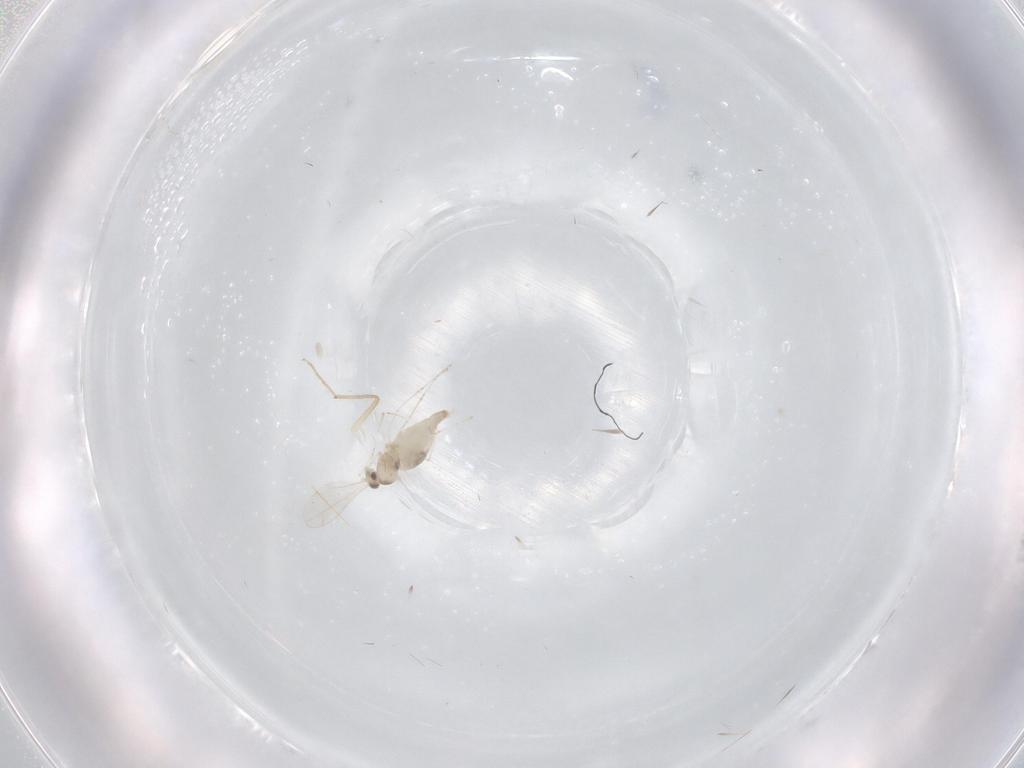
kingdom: Animalia
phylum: Arthropoda
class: Insecta
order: Diptera
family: Cecidomyiidae
